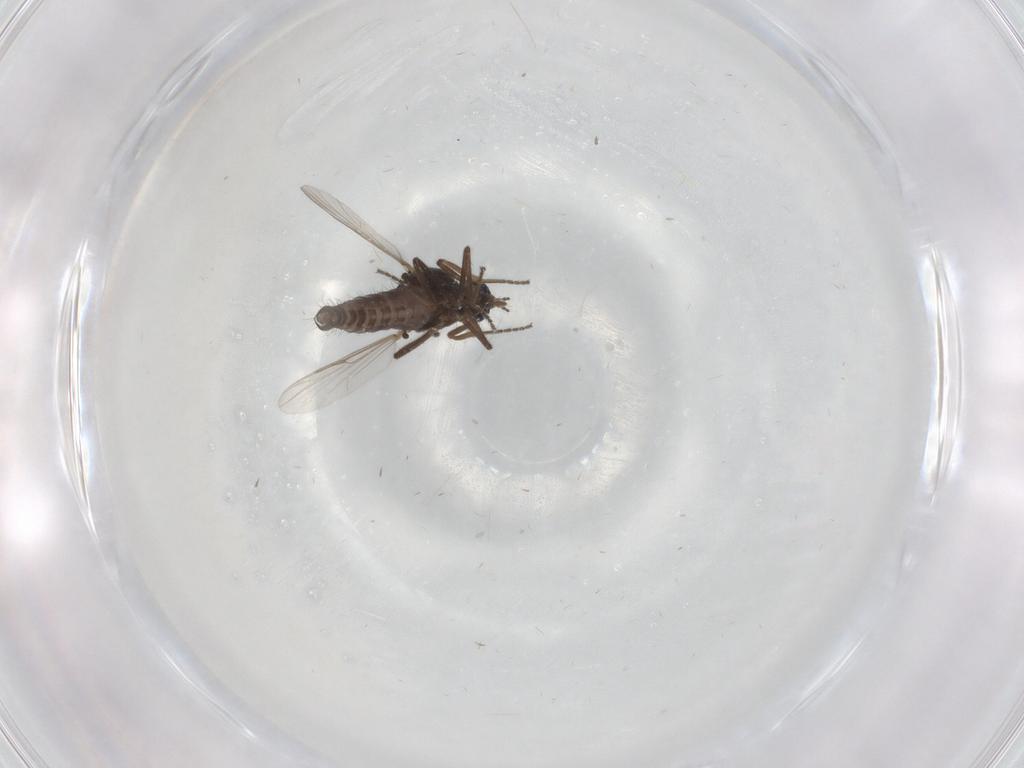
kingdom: Animalia
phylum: Arthropoda
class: Insecta
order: Diptera
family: Ceratopogonidae
